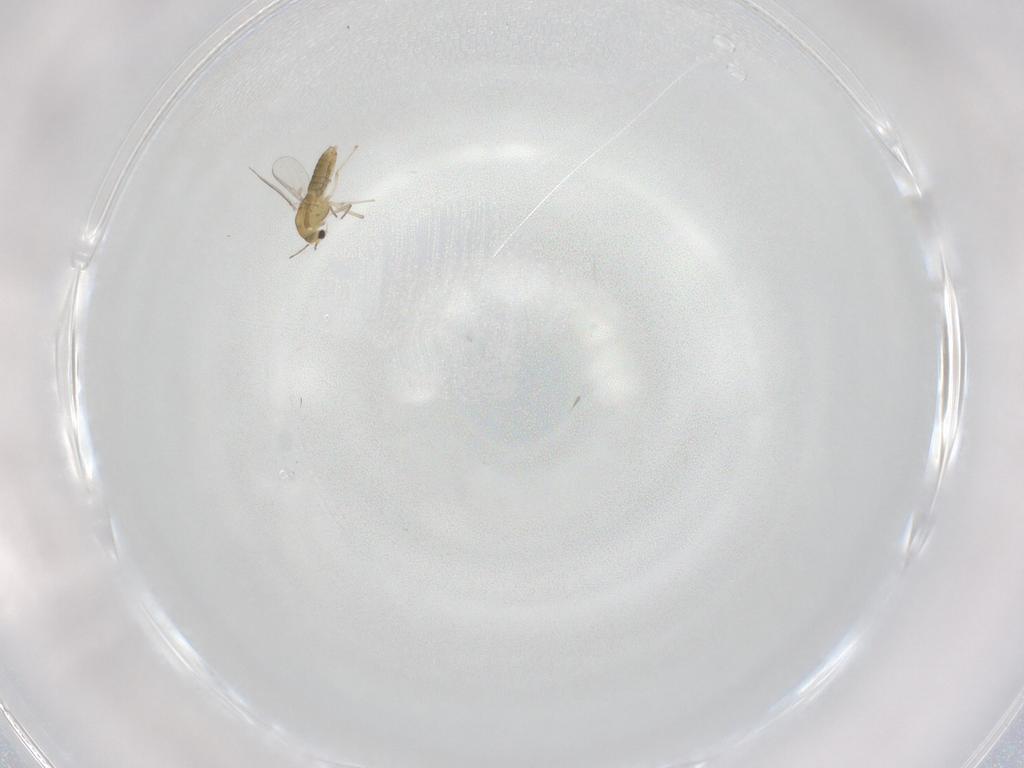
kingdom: Animalia
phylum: Arthropoda
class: Insecta
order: Diptera
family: Chironomidae
